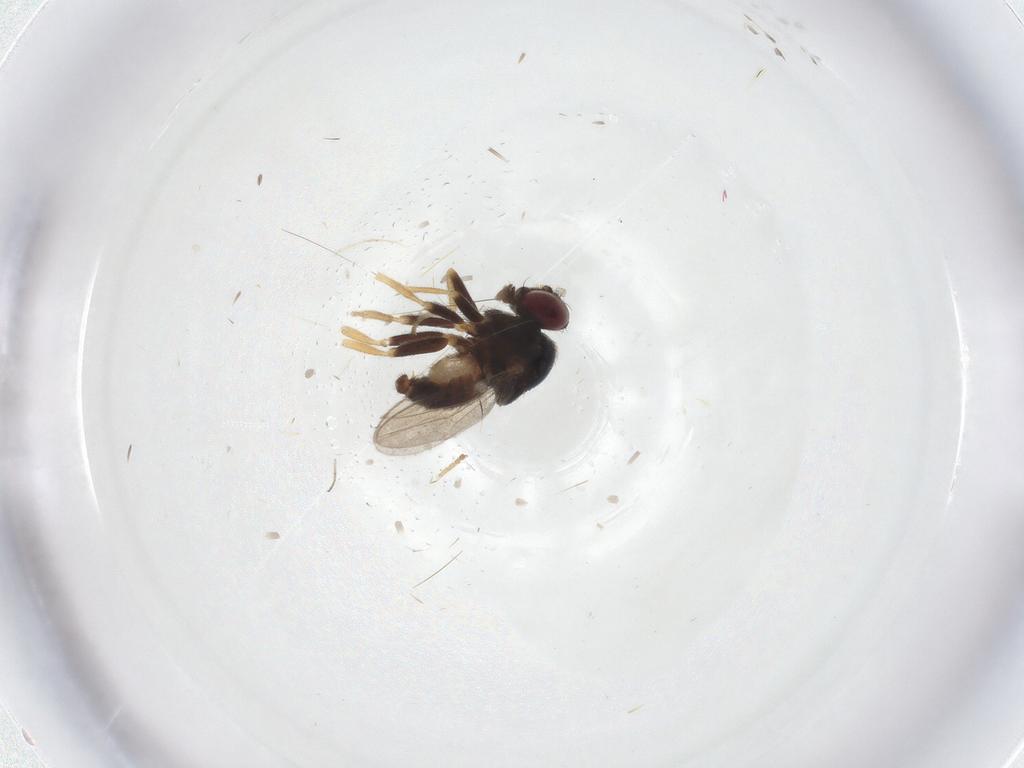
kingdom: Animalia
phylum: Arthropoda
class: Insecta
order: Diptera
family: Chloropidae
